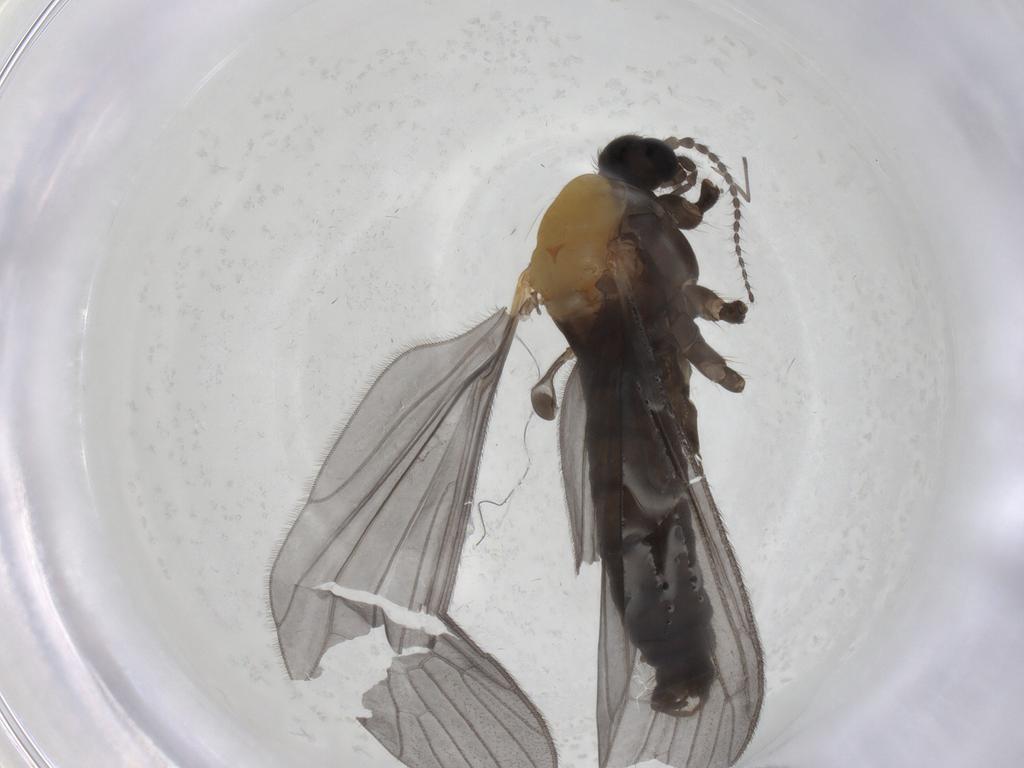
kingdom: Animalia
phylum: Arthropoda
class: Insecta
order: Diptera
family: Limoniidae
